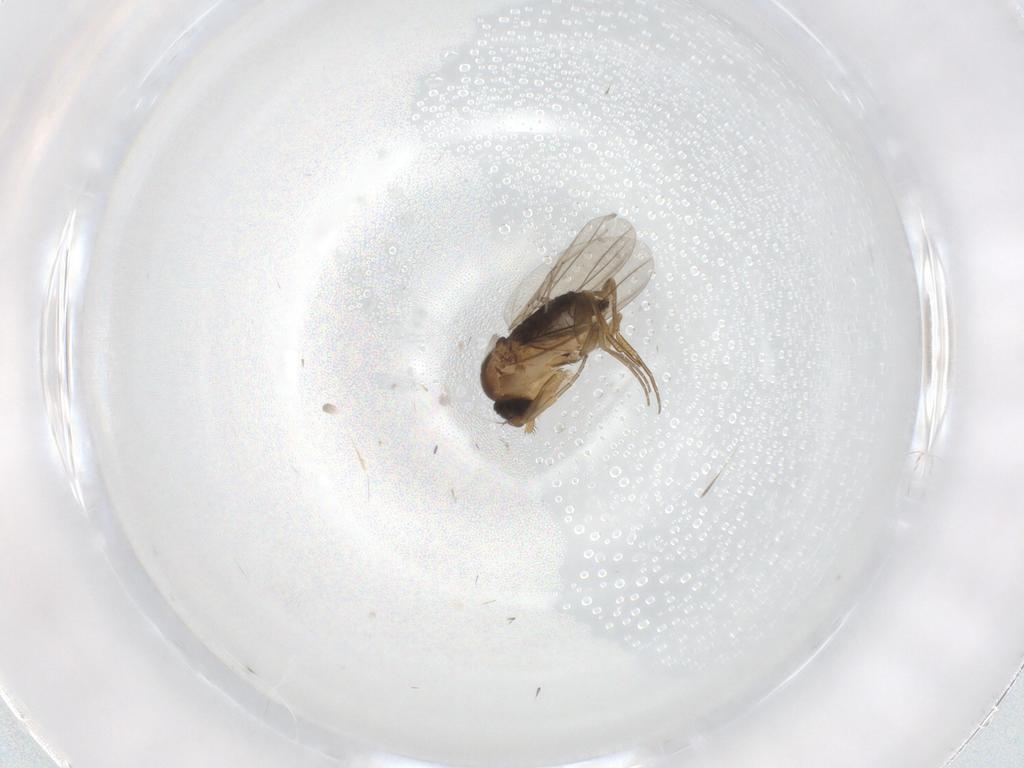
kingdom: Animalia
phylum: Arthropoda
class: Insecta
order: Diptera
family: Phoridae
